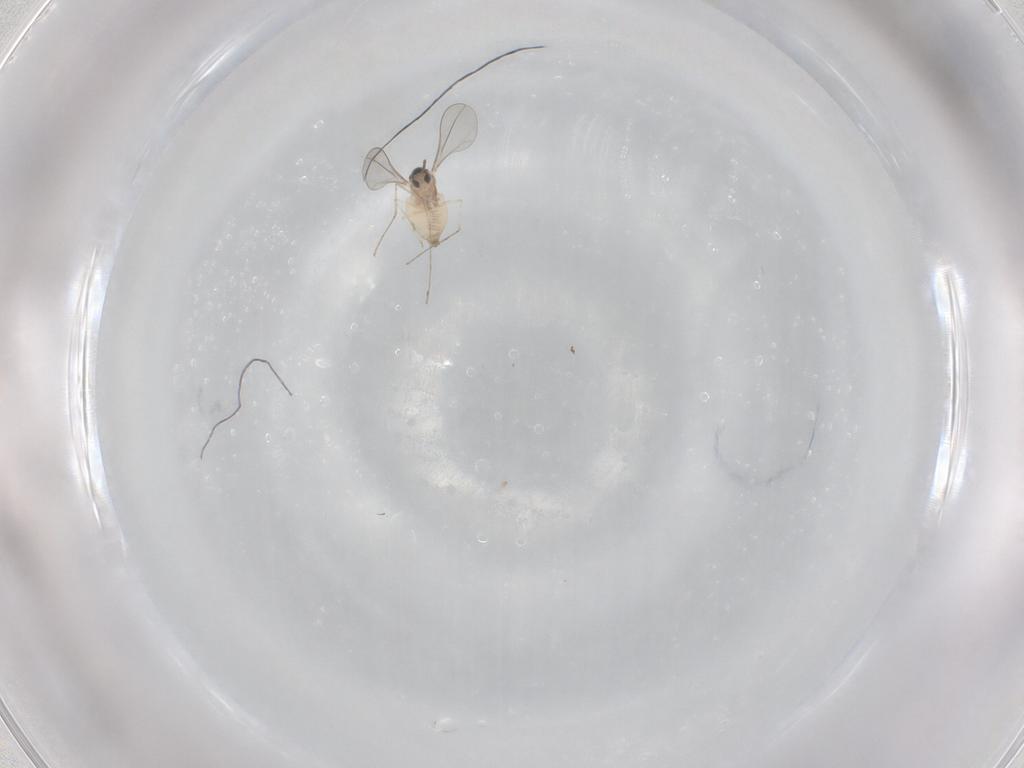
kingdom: Animalia
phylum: Arthropoda
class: Insecta
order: Diptera
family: Cecidomyiidae
